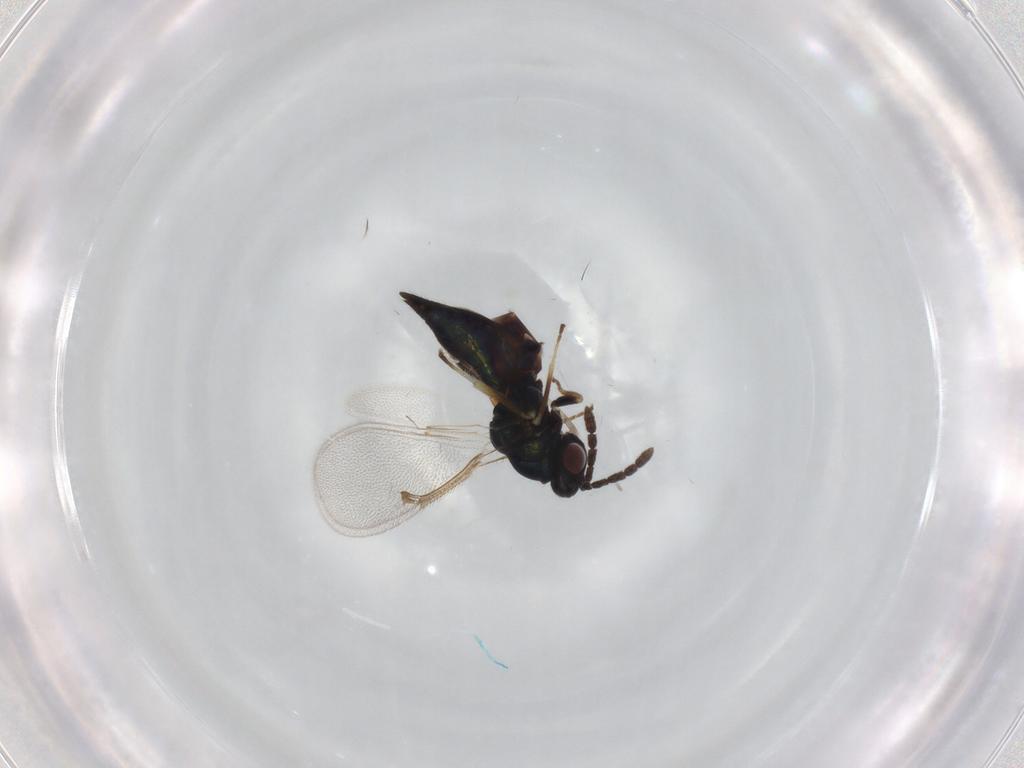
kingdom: Animalia
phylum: Arthropoda
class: Insecta
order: Hymenoptera
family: Eulophidae
